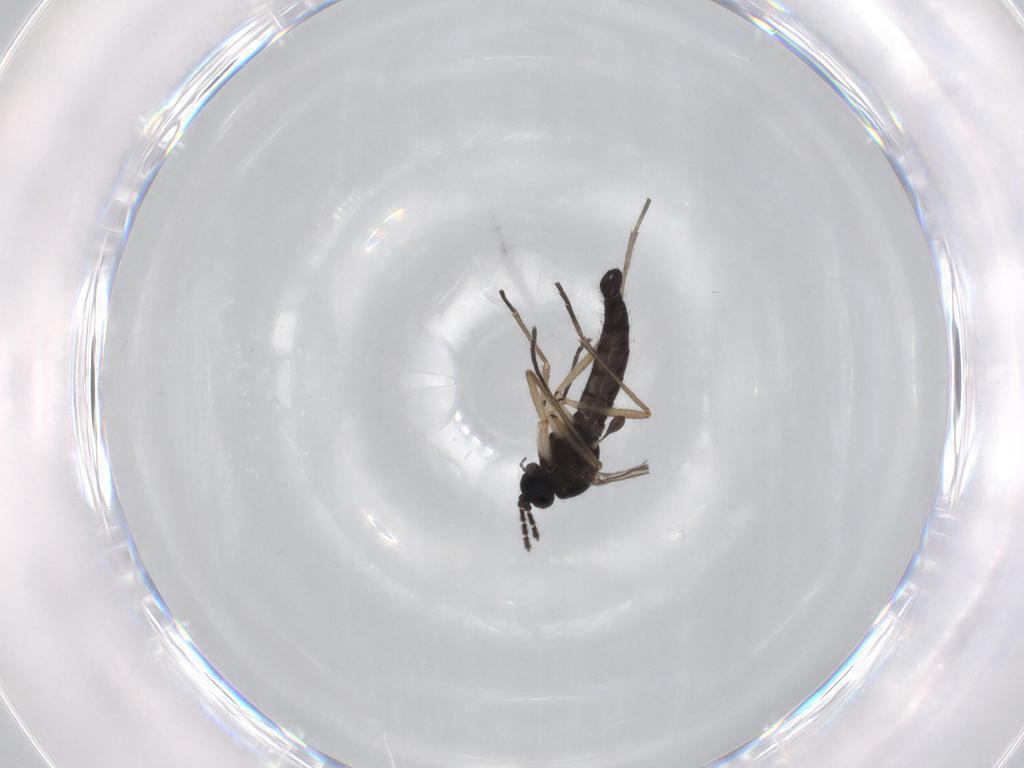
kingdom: Animalia
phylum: Arthropoda
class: Insecta
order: Diptera
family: Sciaridae
